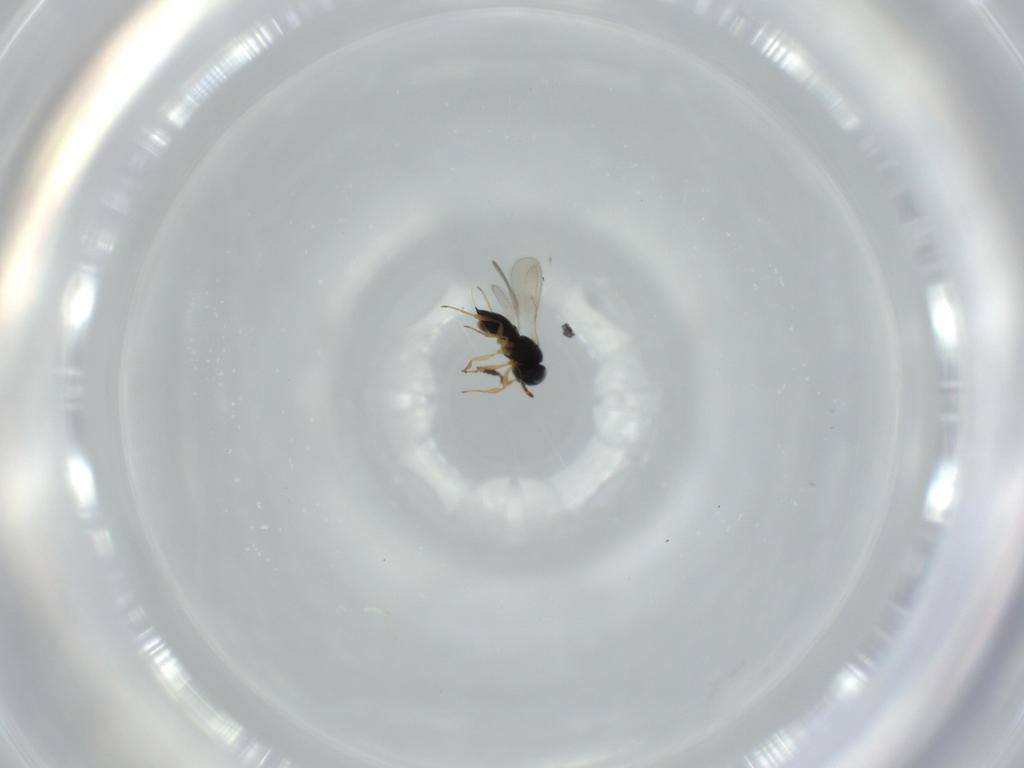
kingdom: Animalia
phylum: Arthropoda
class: Insecta
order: Hymenoptera
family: Scelionidae
